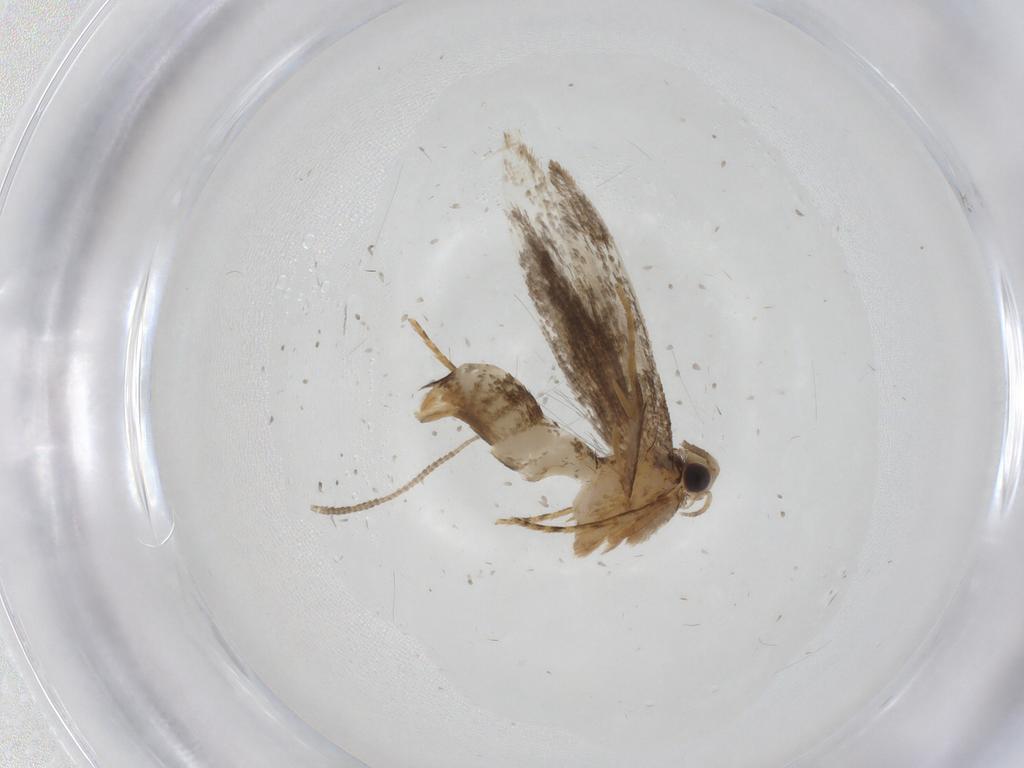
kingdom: Animalia
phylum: Arthropoda
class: Insecta
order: Lepidoptera
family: Tineidae
